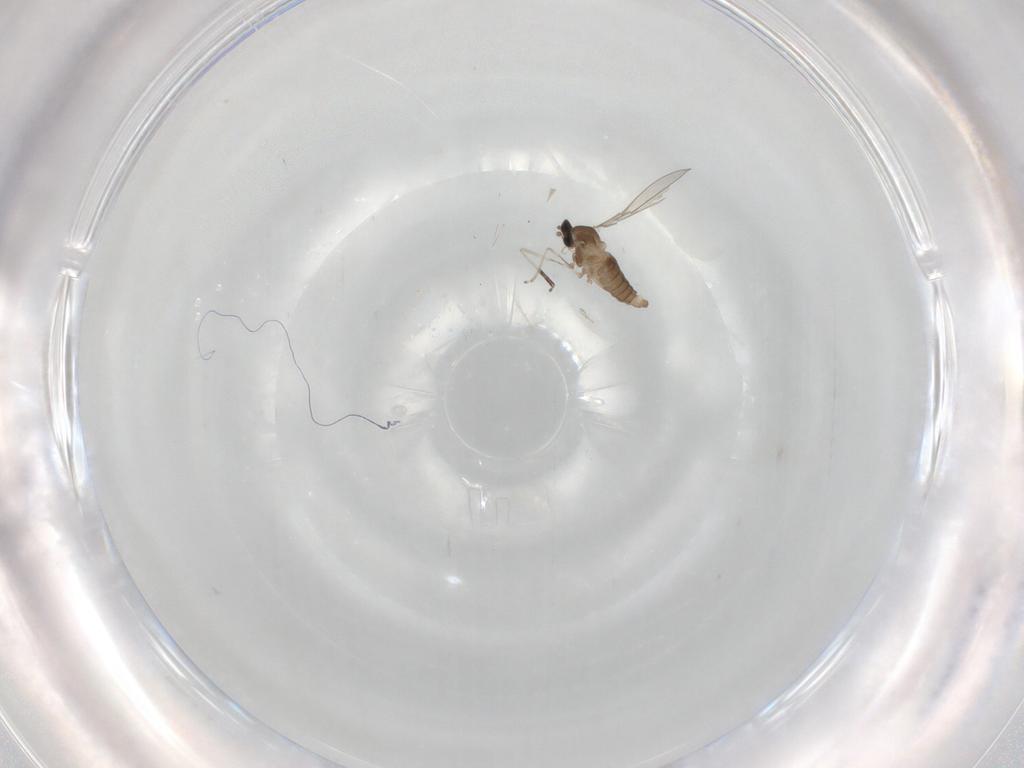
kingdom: Animalia
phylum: Arthropoda
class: Insecta
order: Diptera
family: Cecidomyiidae
